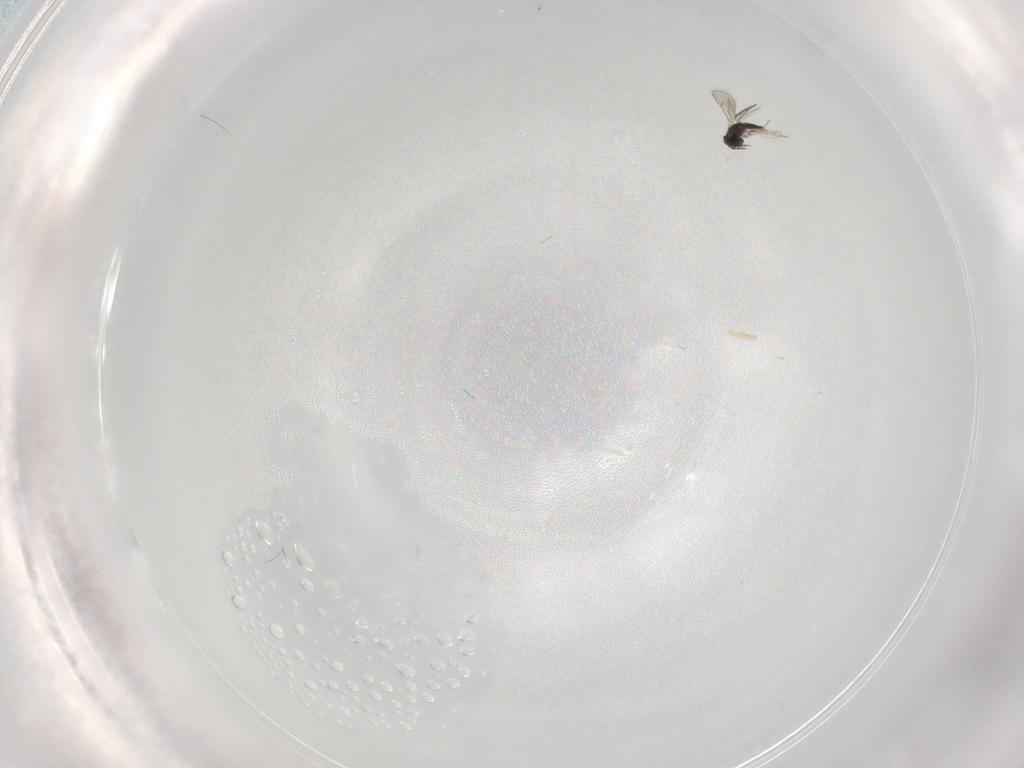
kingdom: Animalia
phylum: Arthropoda
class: Insecta
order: Hymenoptera
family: Eulophidae
